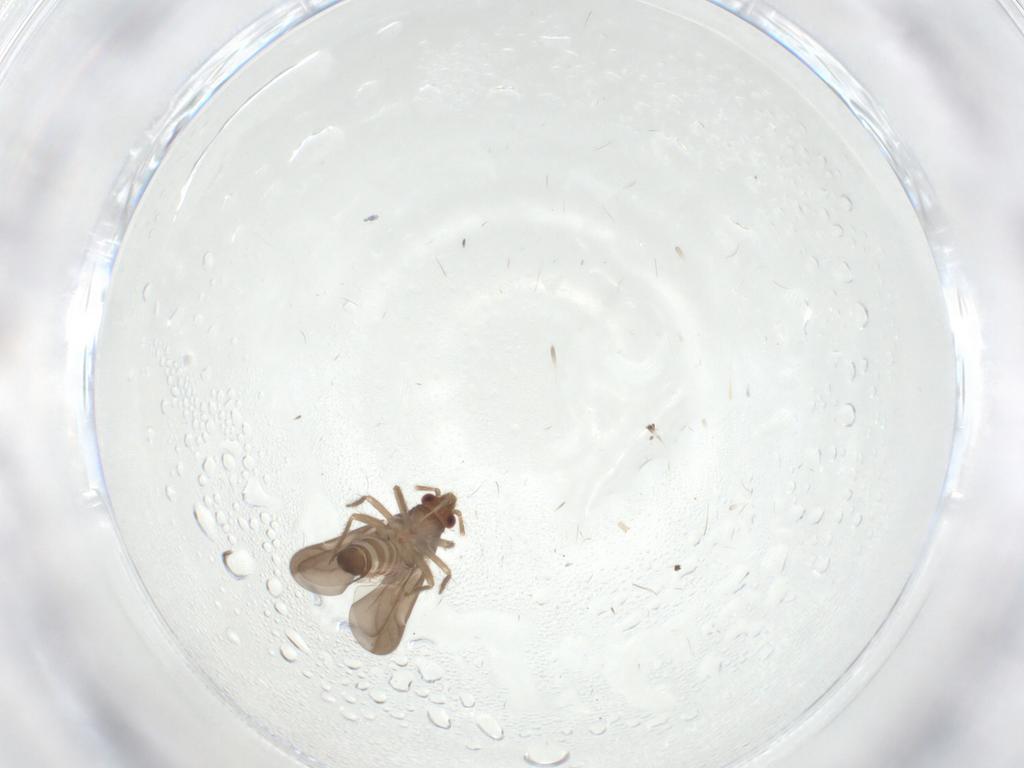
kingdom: Animalia
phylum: Arthropoda
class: Insecta
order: Hemiptera
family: Ceratocombidae
